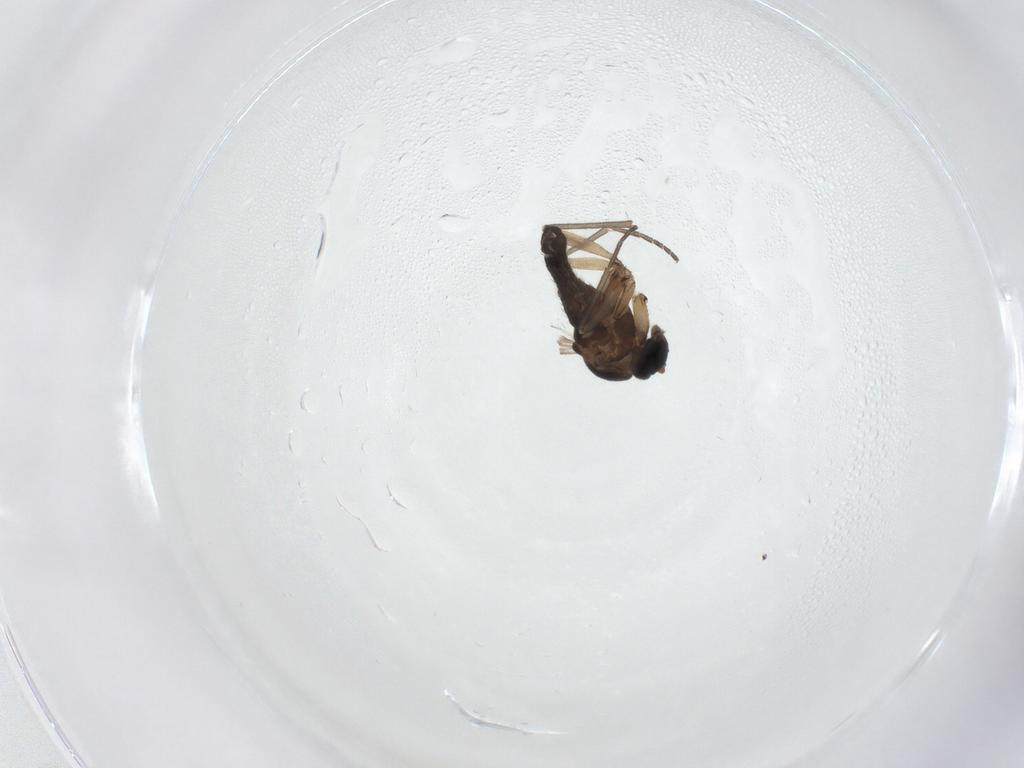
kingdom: Animalia
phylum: Arthropoda
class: Insecta
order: Diptera
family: Sciaridae
